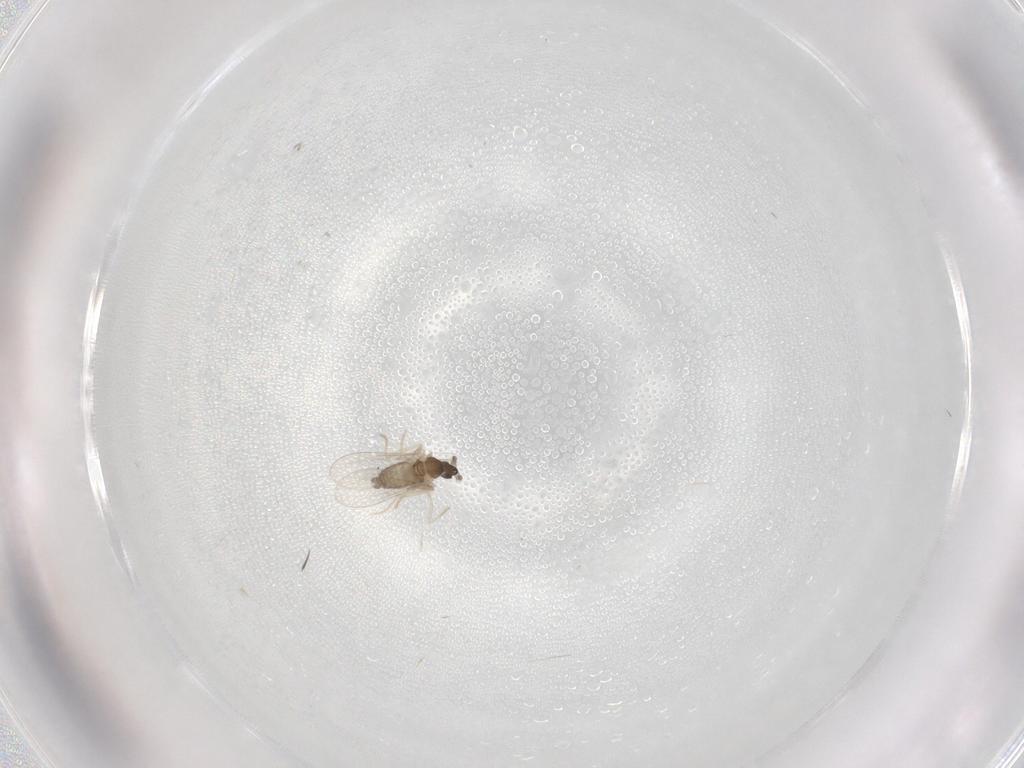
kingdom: Animalia
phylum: Arthropoda
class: Insecta
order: Diptera
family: Cecidomyiidae
